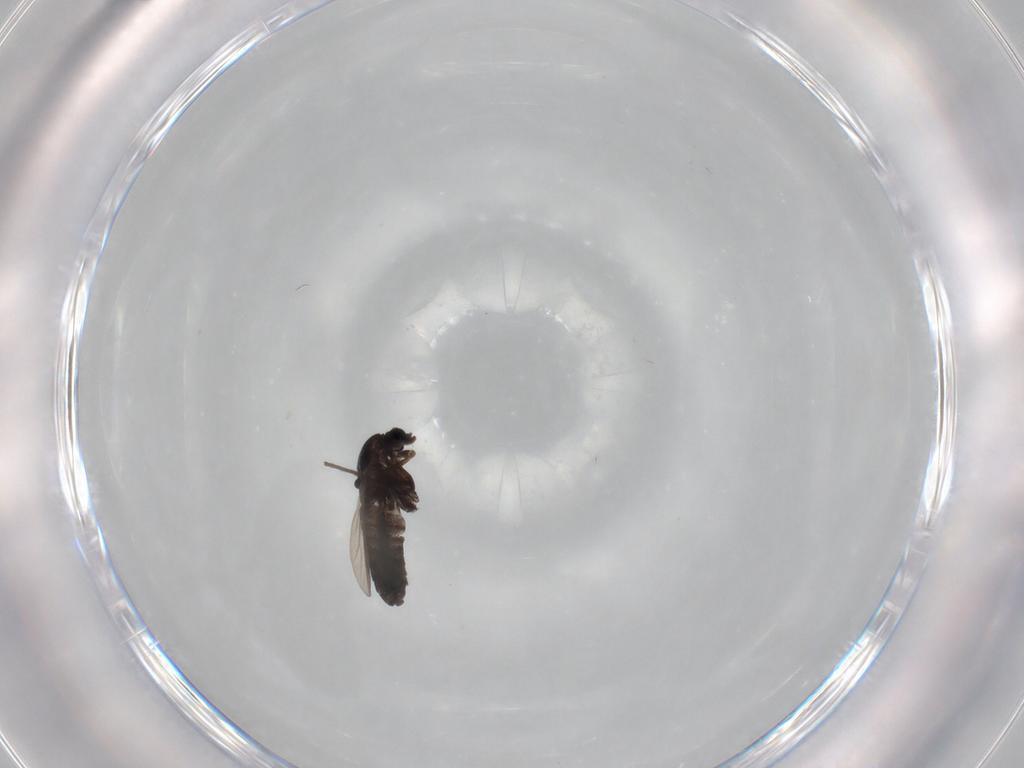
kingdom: Animalia
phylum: Arthropoda
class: Insecta
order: Diptera
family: Chironomidae
